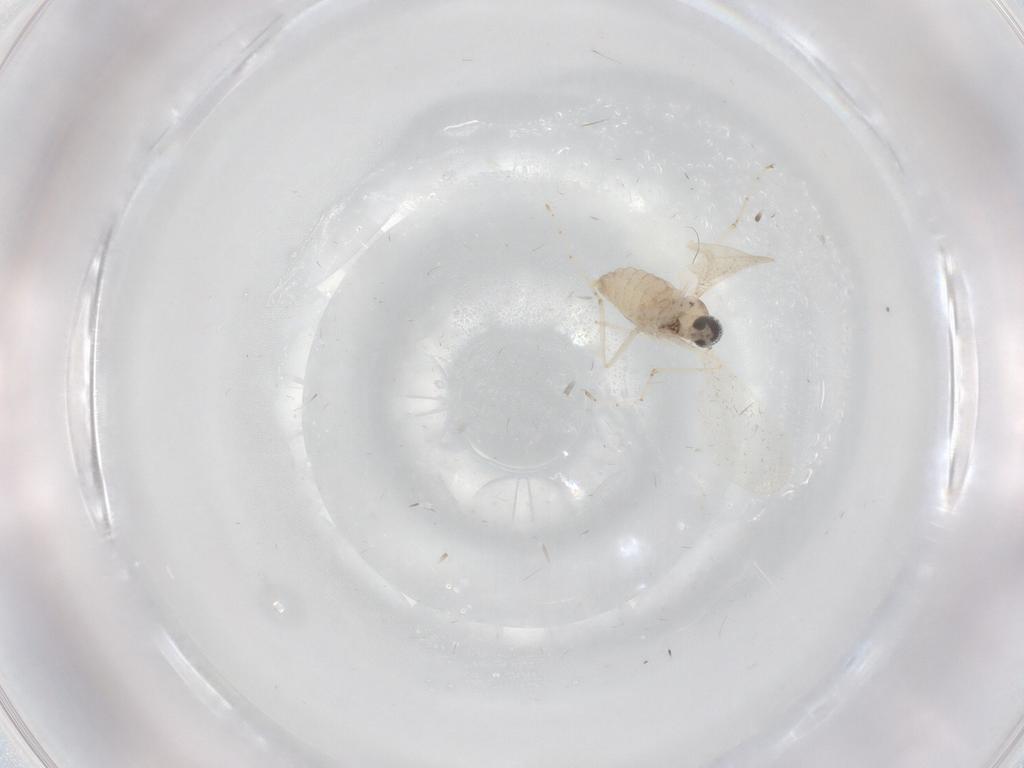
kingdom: Animalia
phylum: Arthropoda
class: Insecta
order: Diptera
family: Cecidomyiidae
